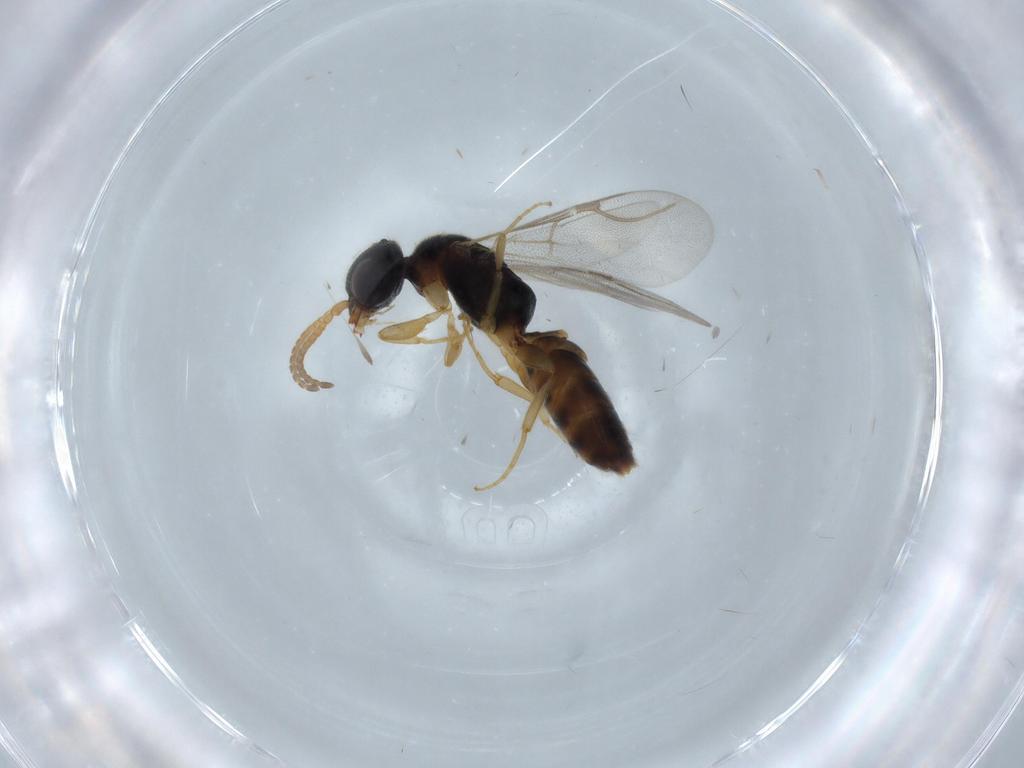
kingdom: Animalia
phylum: Arthropoda
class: Insecta
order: Hymenoptera
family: Bethylidae
